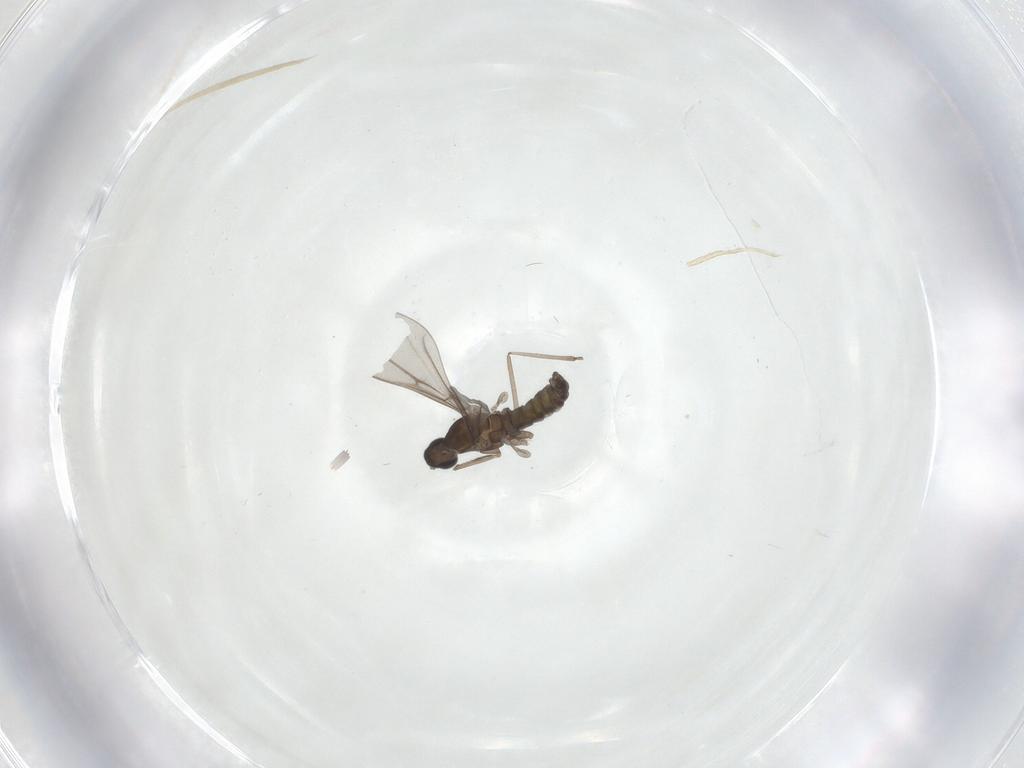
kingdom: Animalia
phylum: Arthropoda
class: Insecta
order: Diptera
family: Cecidomyiidae
